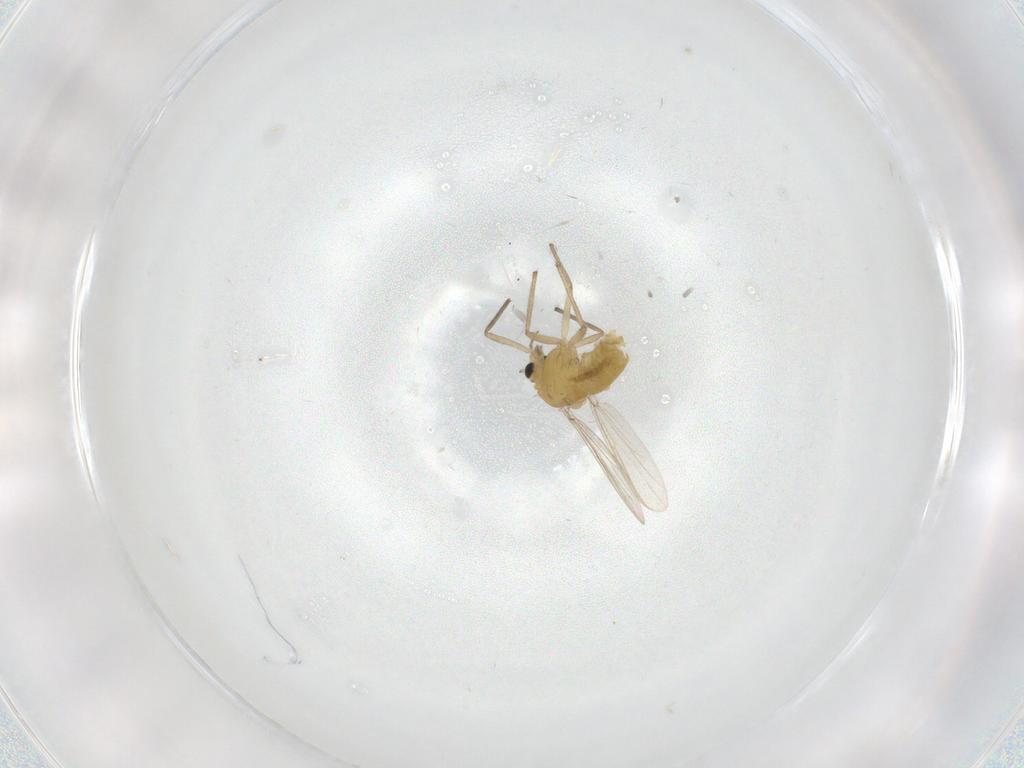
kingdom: Animalia
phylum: Arthropoda
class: Insecta
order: Diptera
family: Chironomidae
